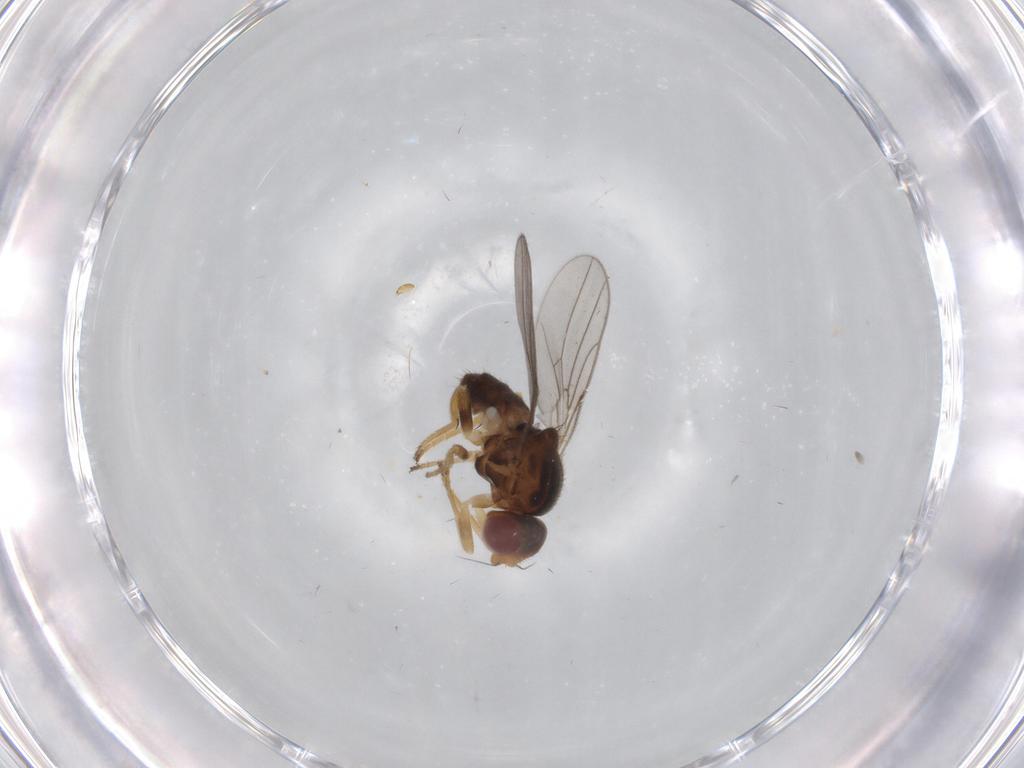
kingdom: Animalia
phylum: Arthropoda
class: Insecta
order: Diptera
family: Chloropidae
